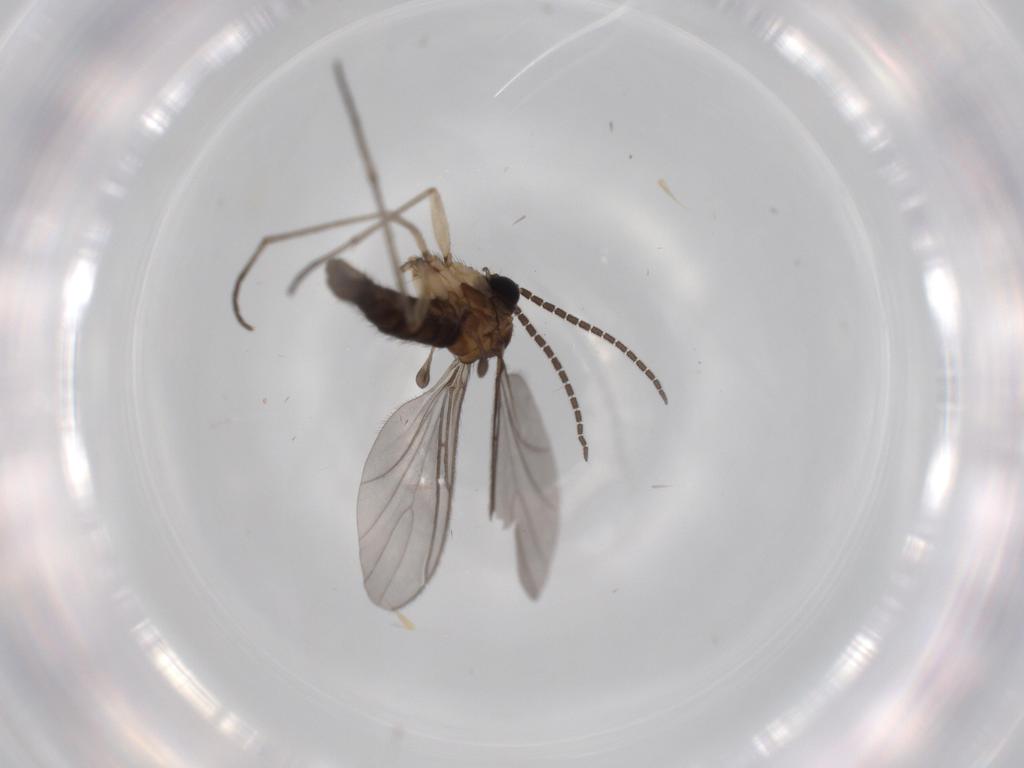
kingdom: Animalia
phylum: Arthropoda
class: Insecta
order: Diptera
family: Sciaridae
